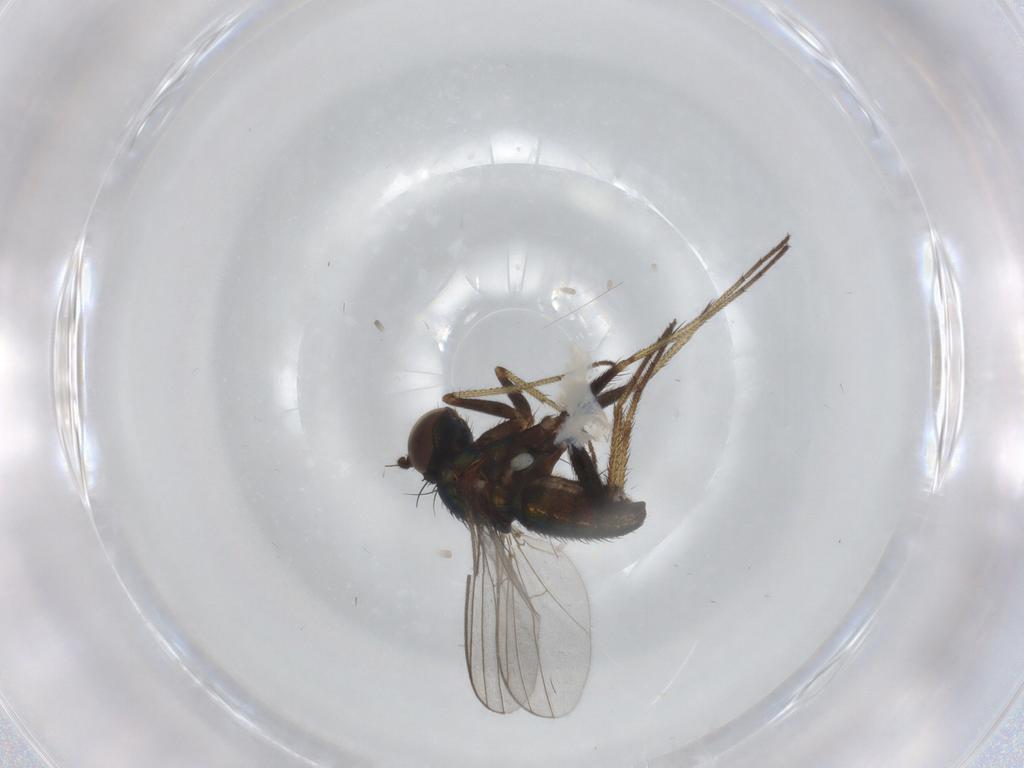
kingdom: Animalia
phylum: Arthropoda
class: Insecta
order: Diptera
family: Dolichopodidae
